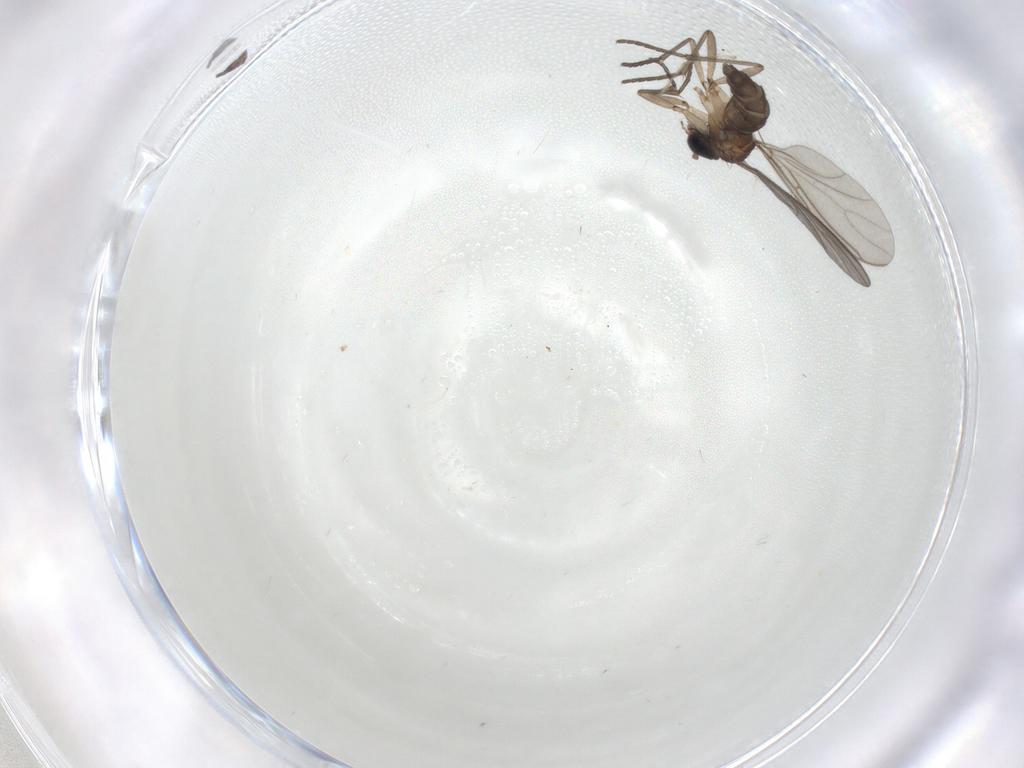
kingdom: Animalia
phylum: Arthropoda
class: Insecta
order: Diptera
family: Sciaridae
